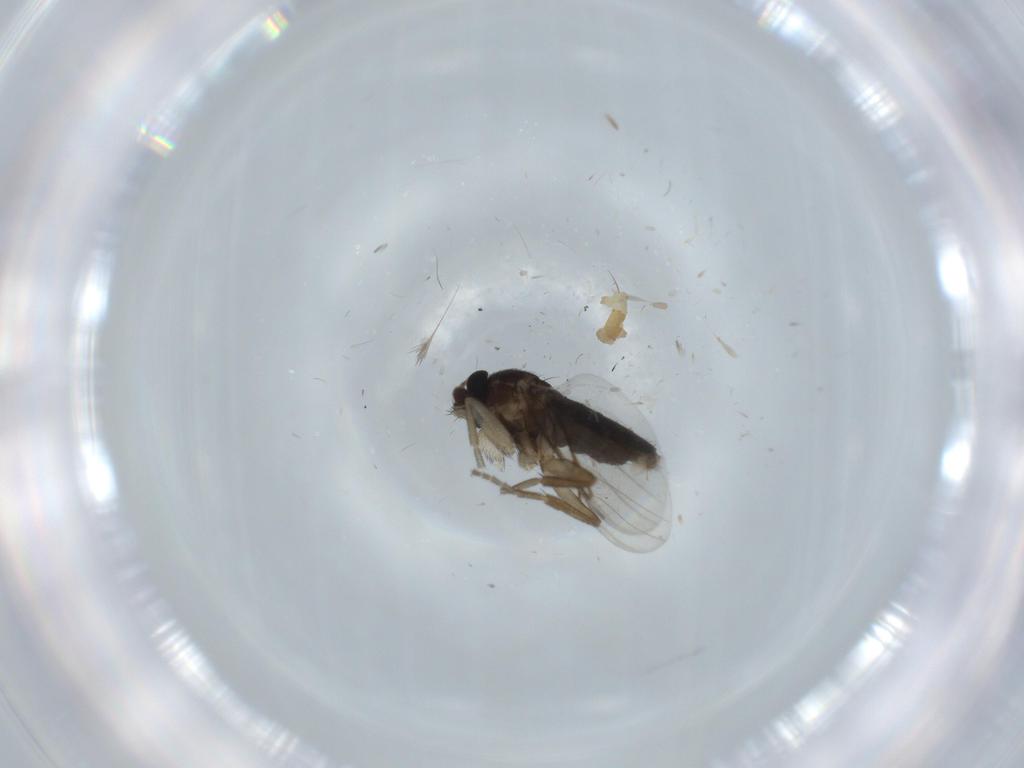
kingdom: Animalia
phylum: Arthropoda
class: Insecta
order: Diptera
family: Phoridae
